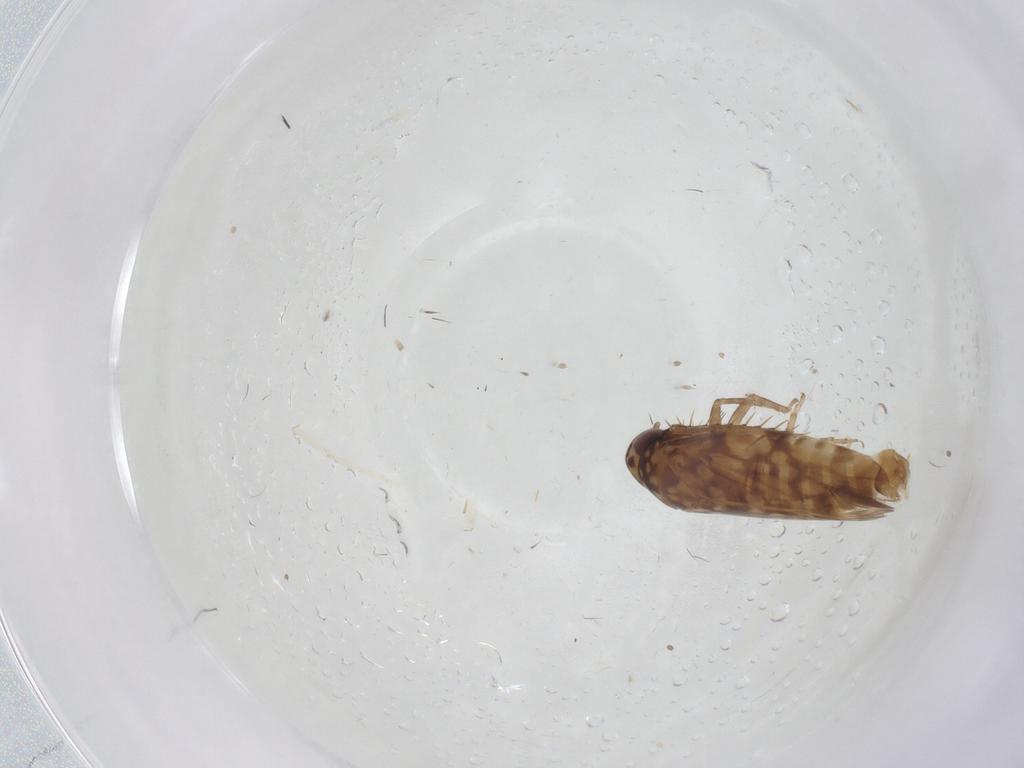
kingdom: Animalia
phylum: Arthropoda
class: Insecta
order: Hemiptera
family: Cicadellidae
